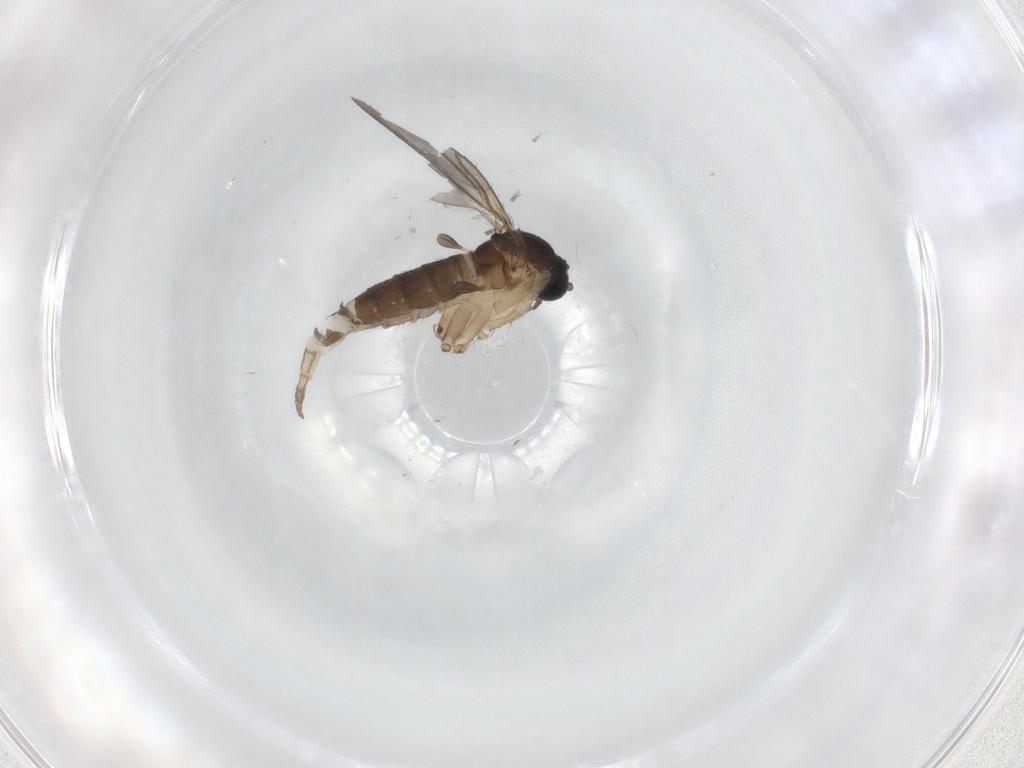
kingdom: Animalia
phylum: Arthropoda
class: Insecta
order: Diptera
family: Sciaridae
